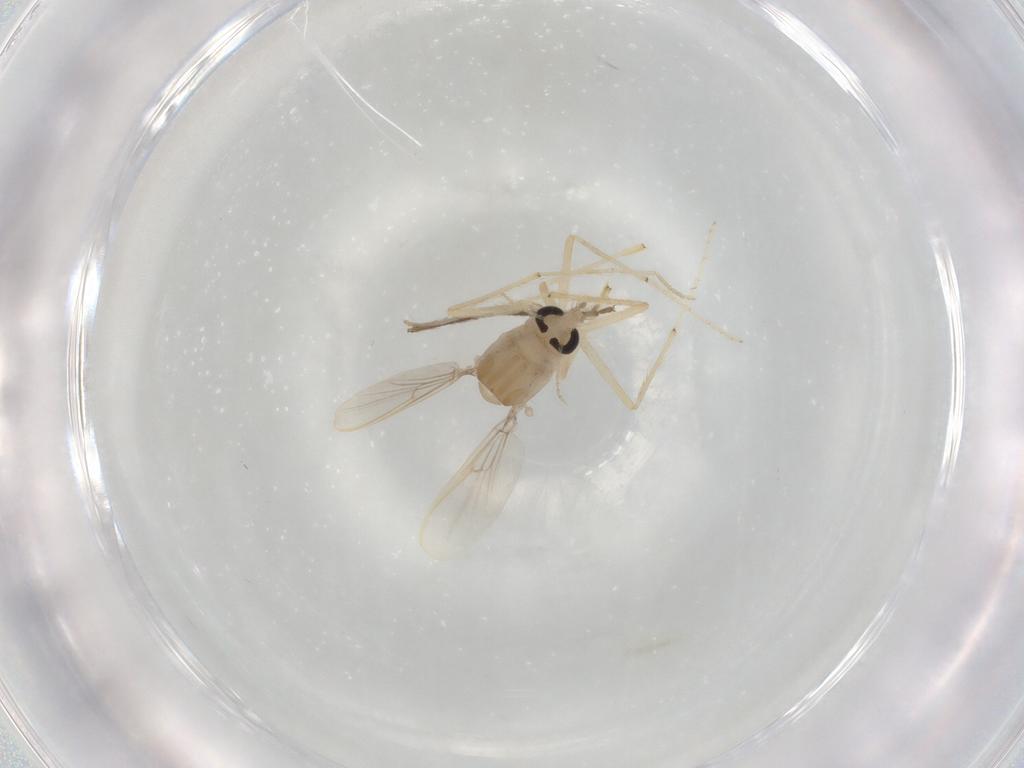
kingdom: Animalia
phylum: Arthropoda
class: Insecta
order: Diptera
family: Chironomidae
